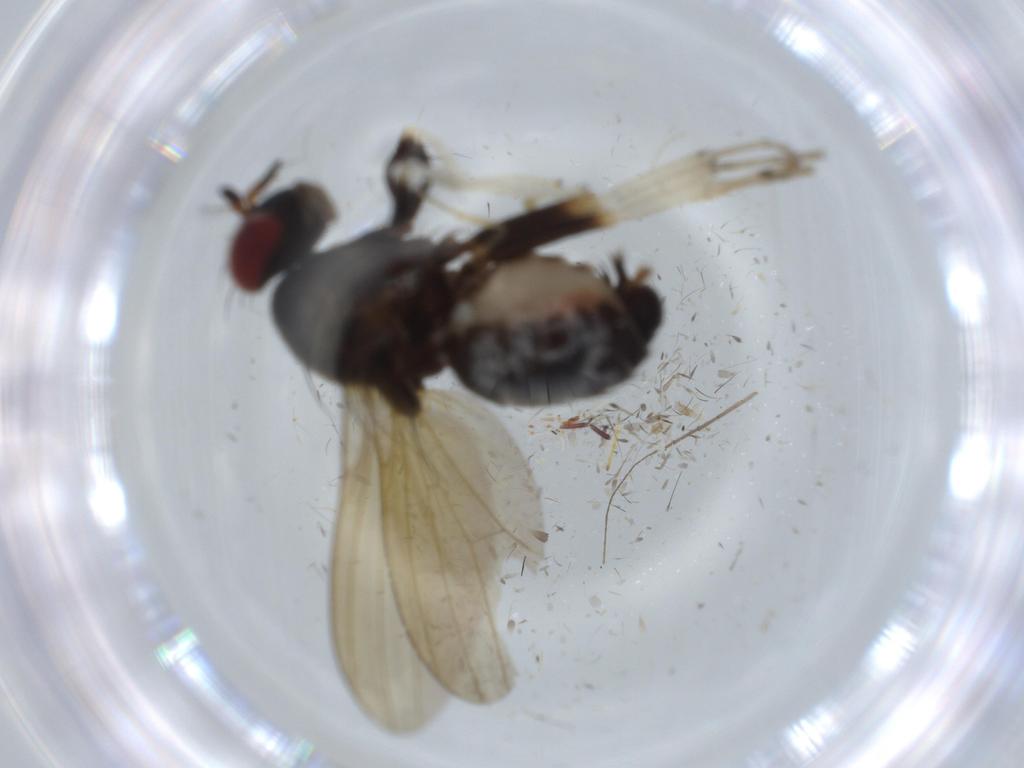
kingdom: Animalia
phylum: Arthropoda
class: Insecta
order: Diptera
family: Ceratopogonidae
